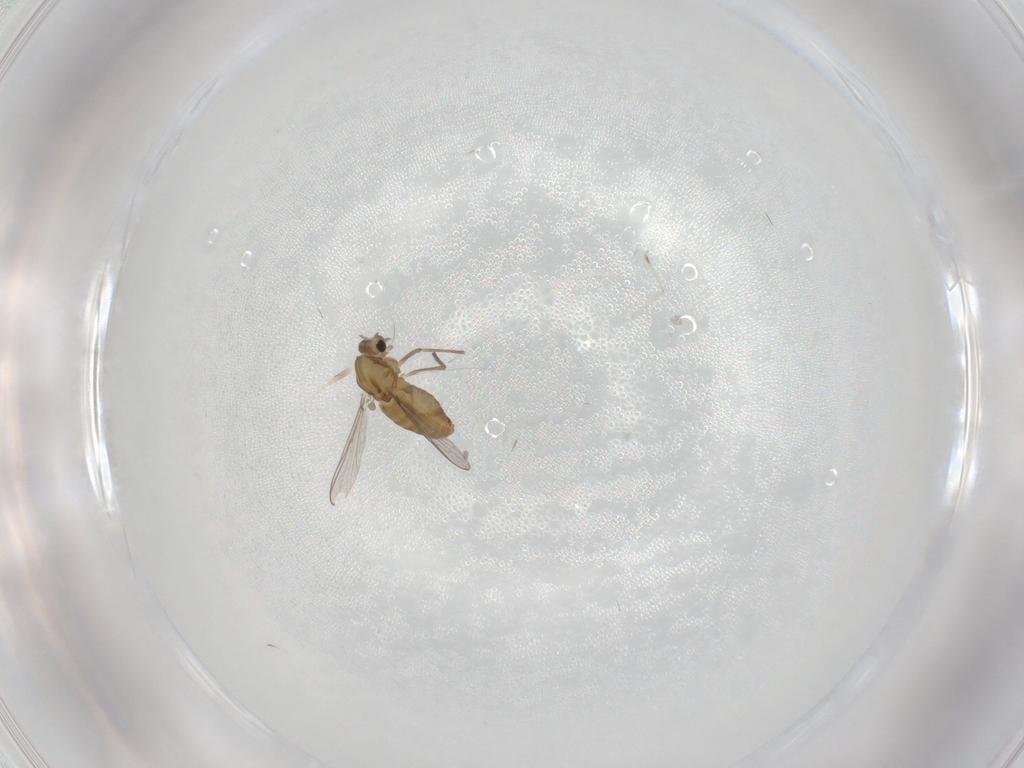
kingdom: Animalia
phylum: Arthropoda
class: Insecta
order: Diptera
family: Chironomidae
